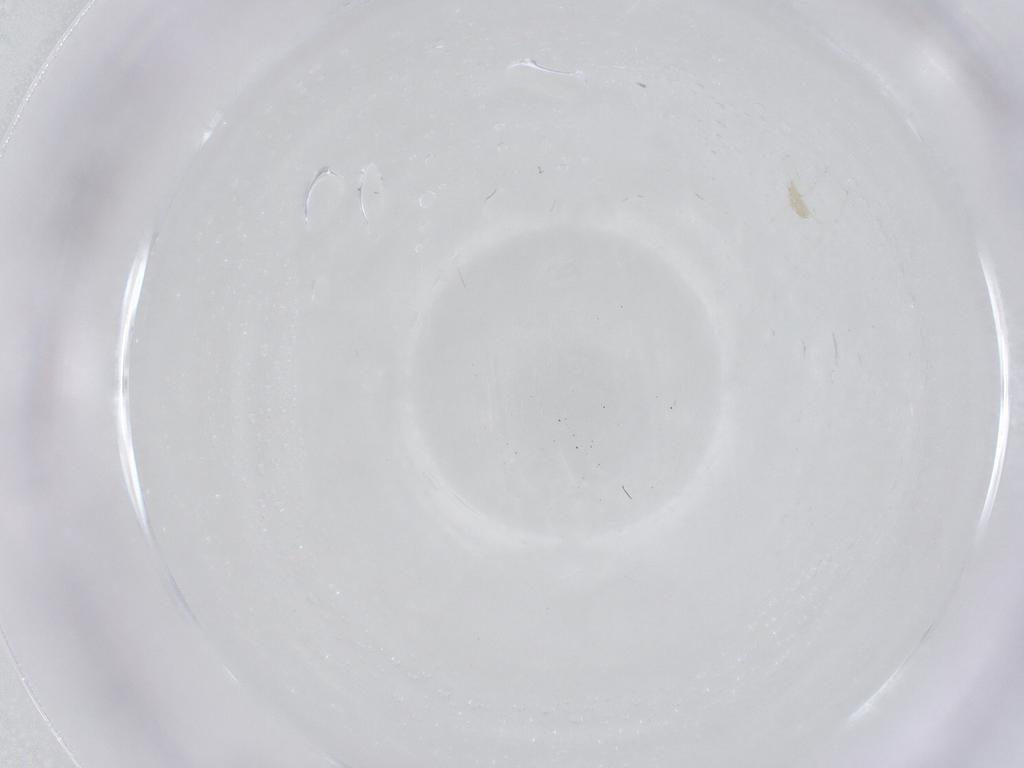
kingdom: Animalia
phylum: Arthropoda
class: Insecta
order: Diptera
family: Cecidomyiidae
